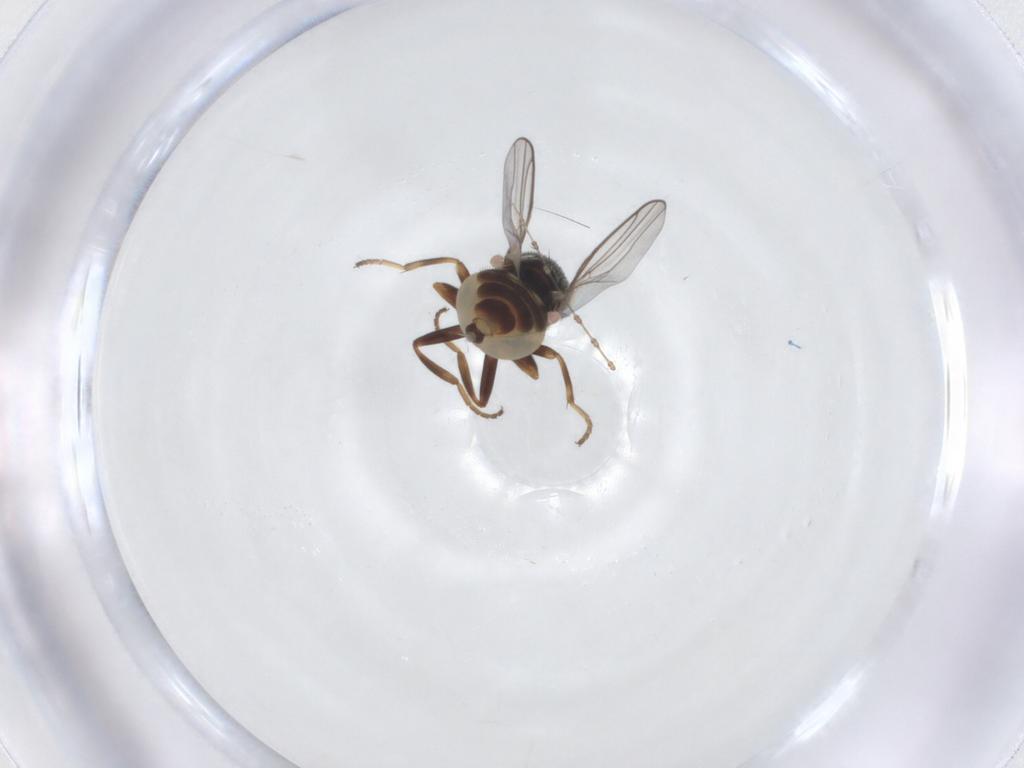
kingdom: Animalia
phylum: Arthropoda
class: Insecta
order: Diptera
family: Chloropidae
